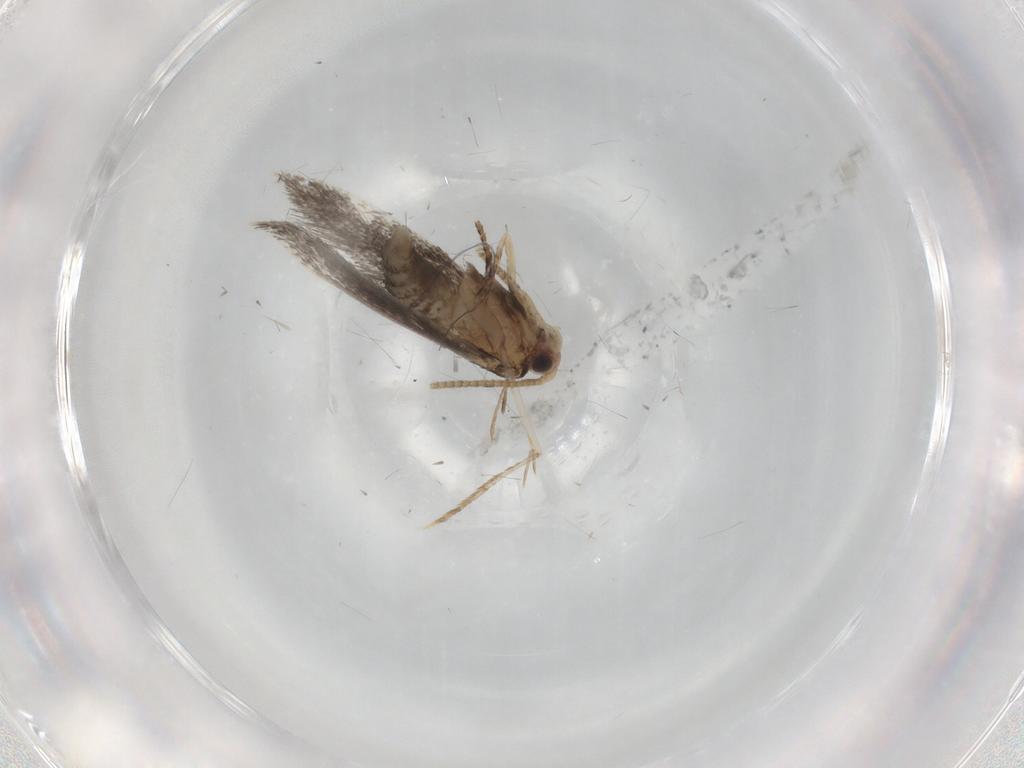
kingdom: Animalia
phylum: Arthropoda
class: Insecta
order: Lepidoptera
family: Tineidae
